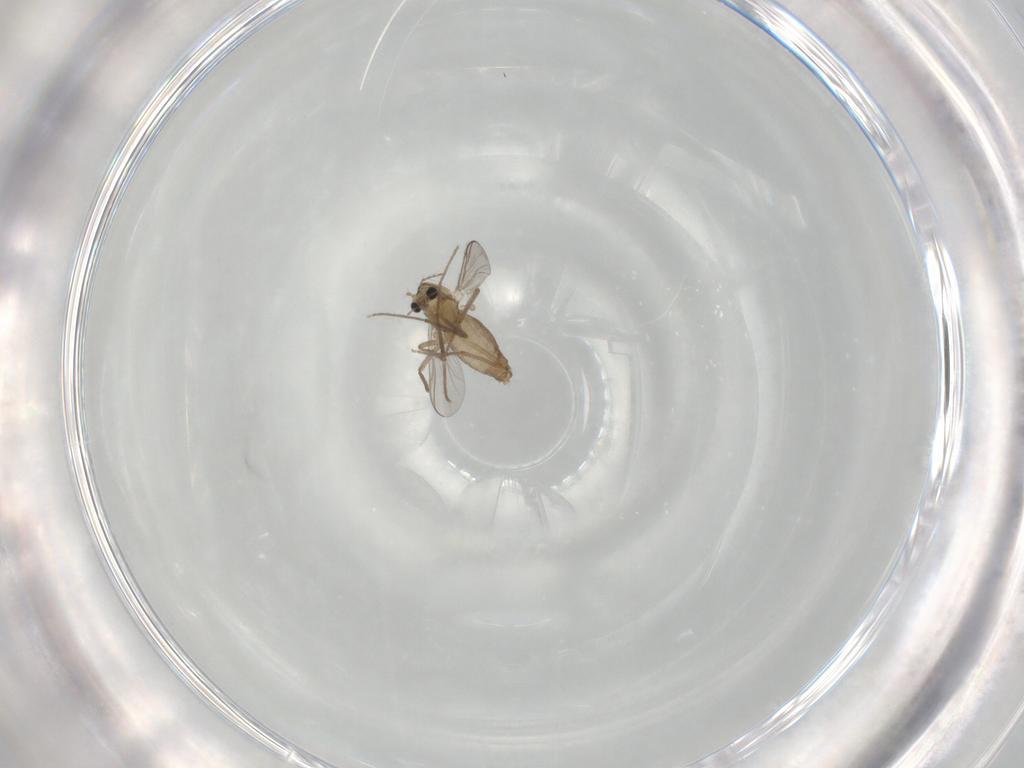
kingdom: Animalia
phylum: Arthropoda
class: Insecta
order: Diptera
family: Chironomidae
